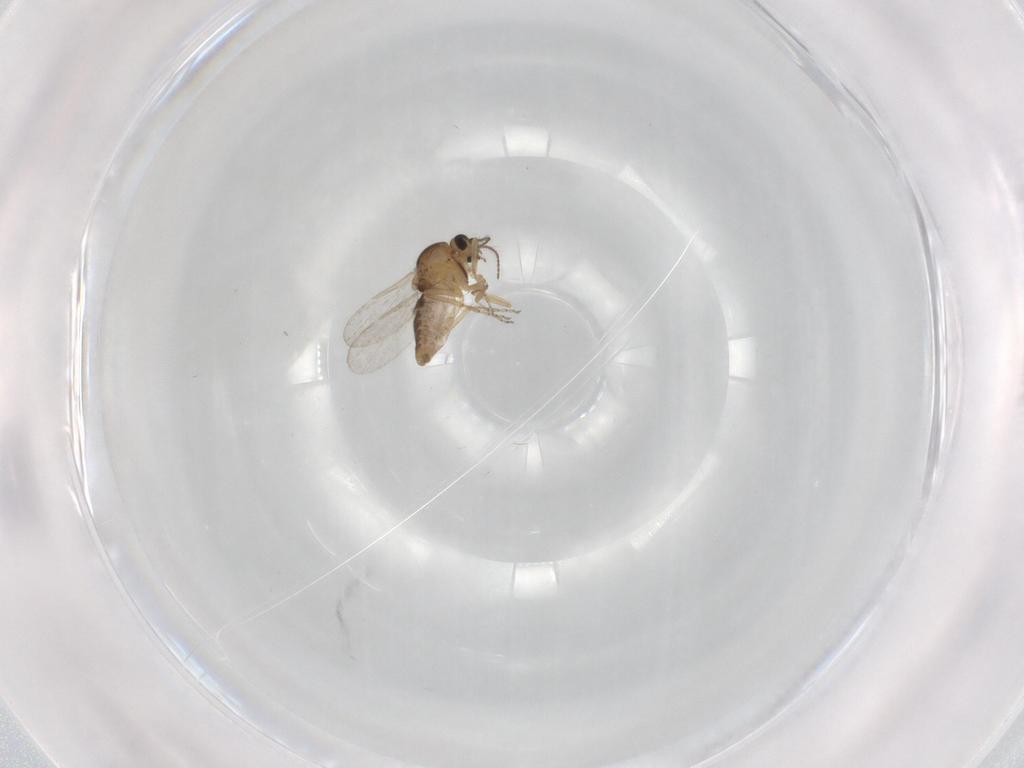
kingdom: Animalia
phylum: Arthropoda
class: Insecta
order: Diptera
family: Ceratopogonidae
